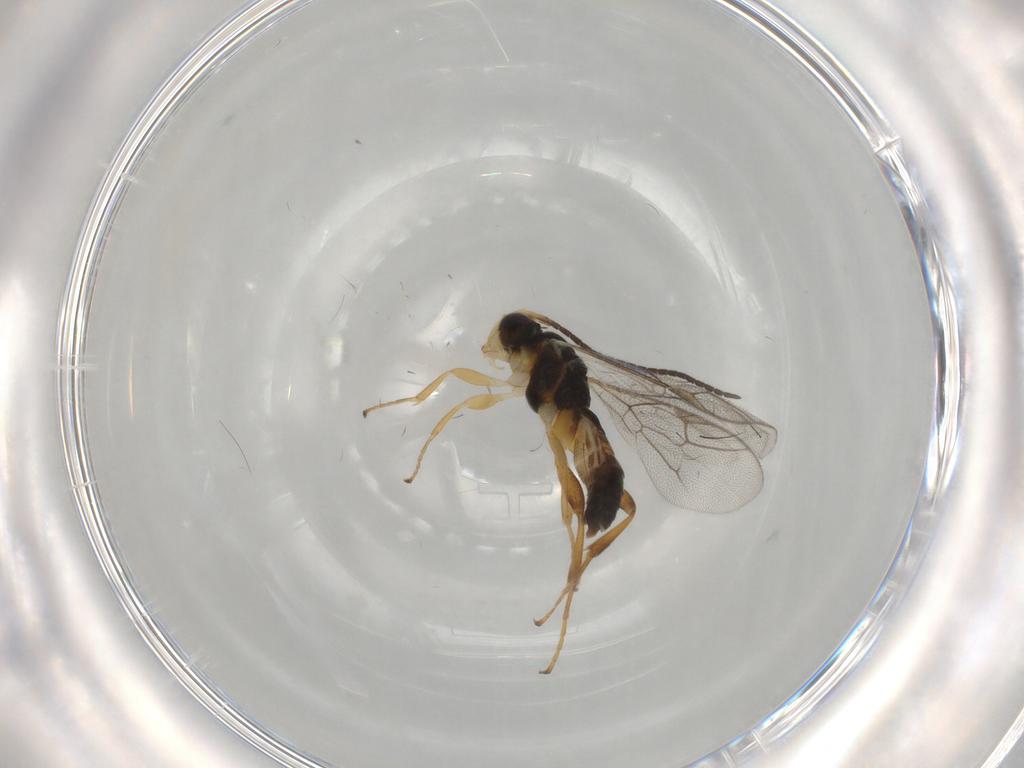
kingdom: Animalia
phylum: Arthropoda
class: Insecta
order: Hymenoptera
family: Ichneumonidae
